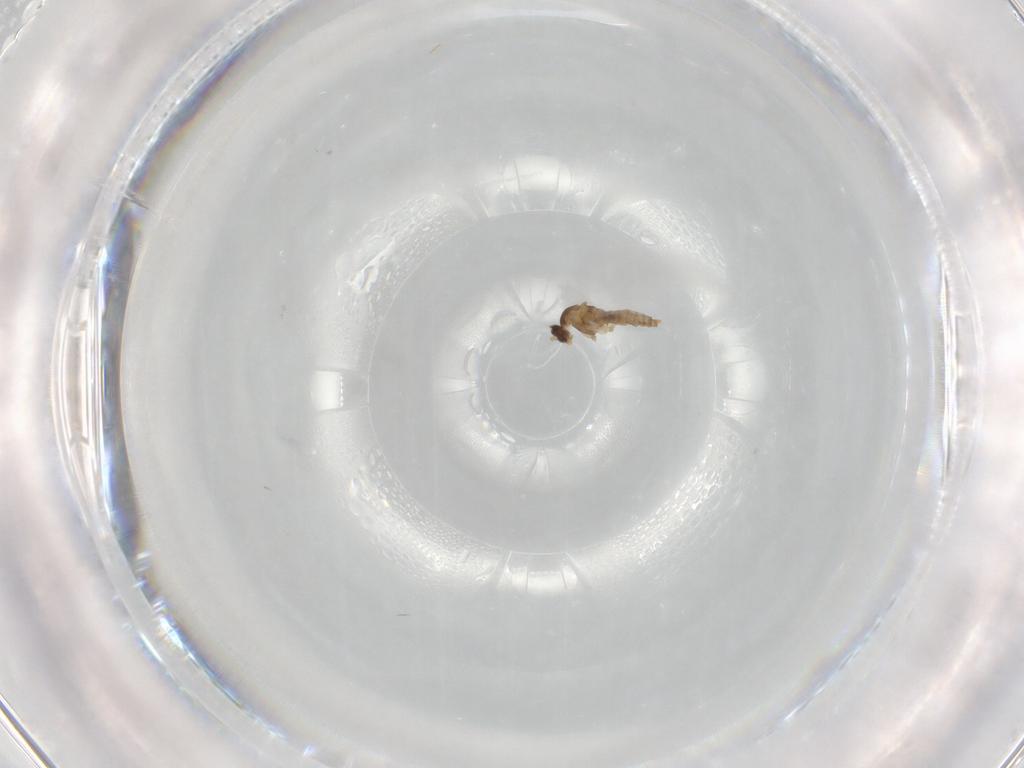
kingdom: Animalia
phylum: Arthropoda
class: Insecta
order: Diptera
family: Cecidomyiidae
